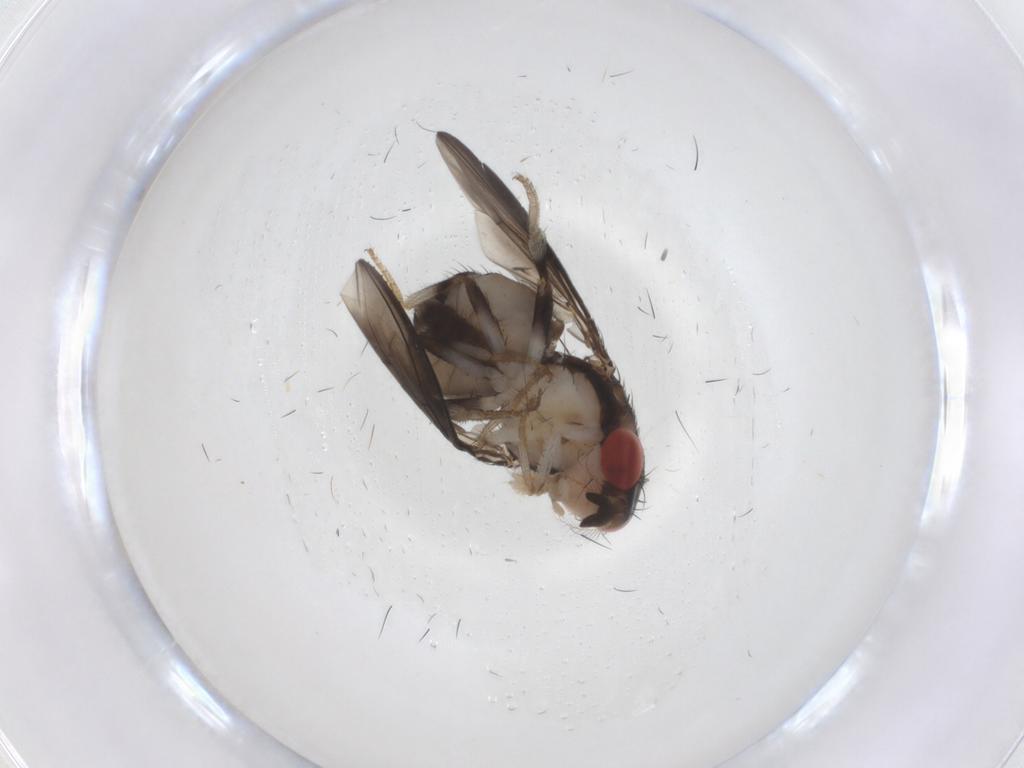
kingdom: Animalia
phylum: Arthropoda
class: Insecta
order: Diptera
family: Drosophilidae
